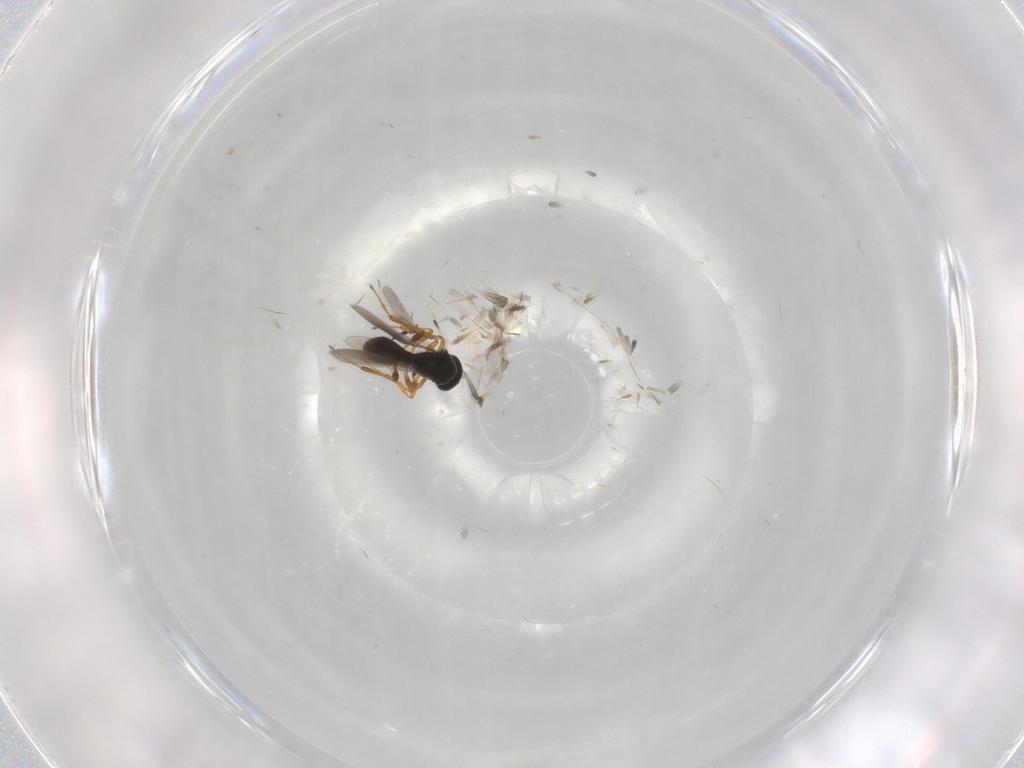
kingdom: Animalia
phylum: Arthropoda
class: Insecta
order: Hymenoptera
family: Platygastridae
